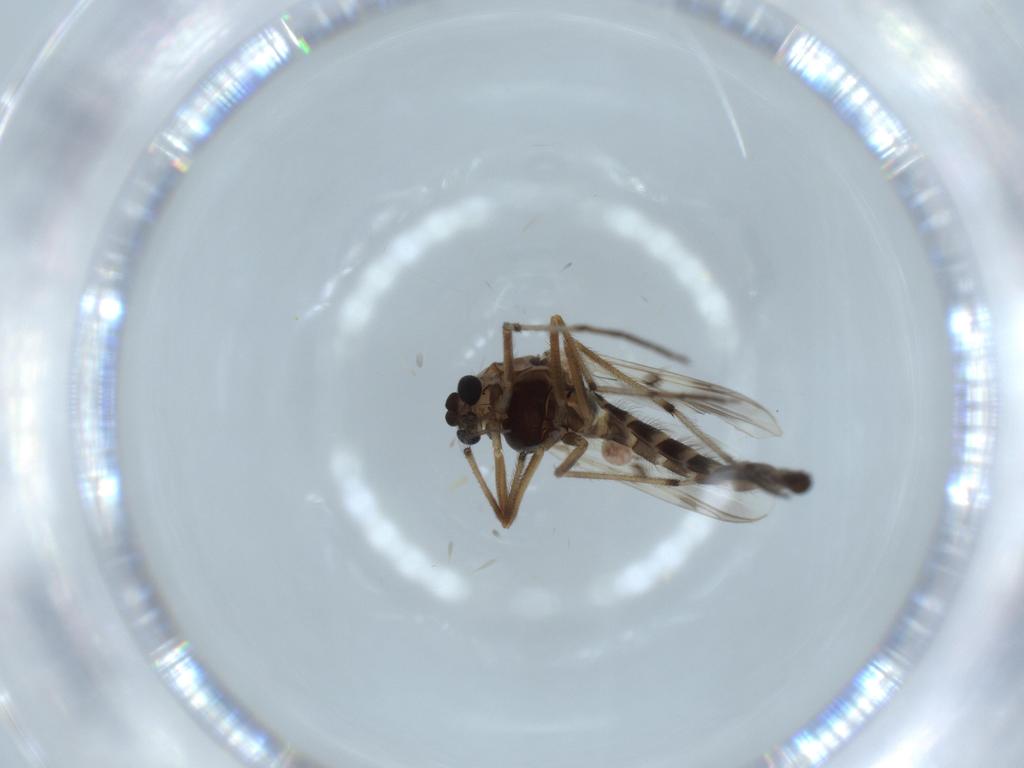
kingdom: Animalia
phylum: Arthropoda
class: Insecta
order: Diptera
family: Chironomidae
